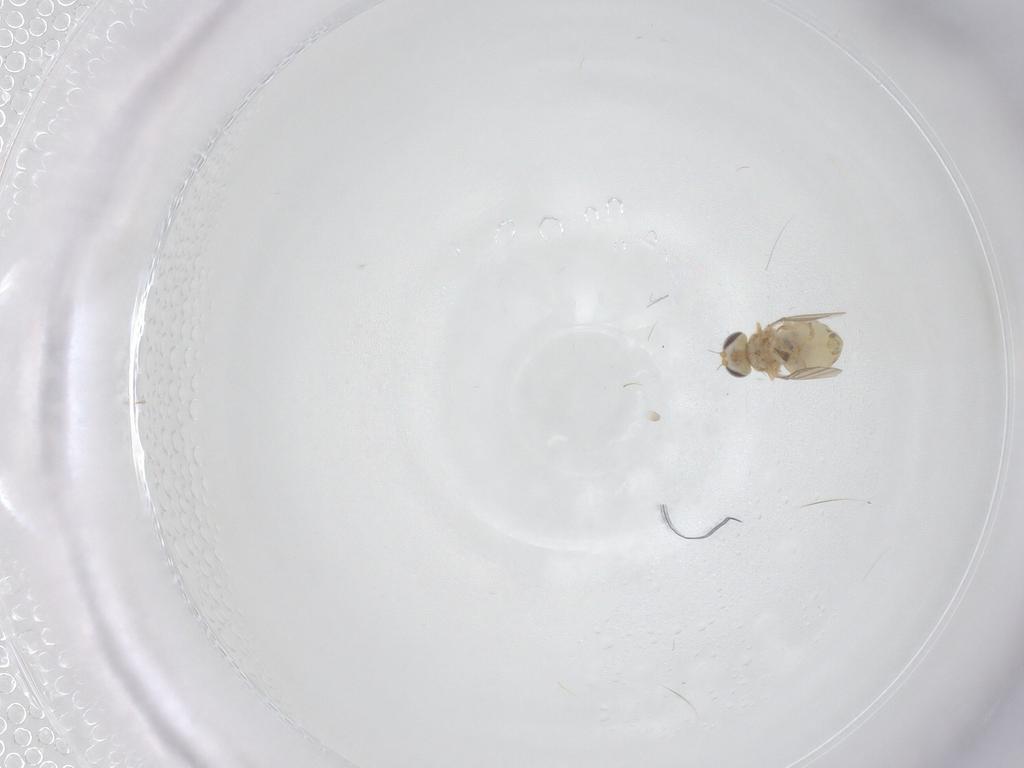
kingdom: Animalia
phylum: Arthropoda
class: Insecta
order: Diptera
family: Chyromyidae
